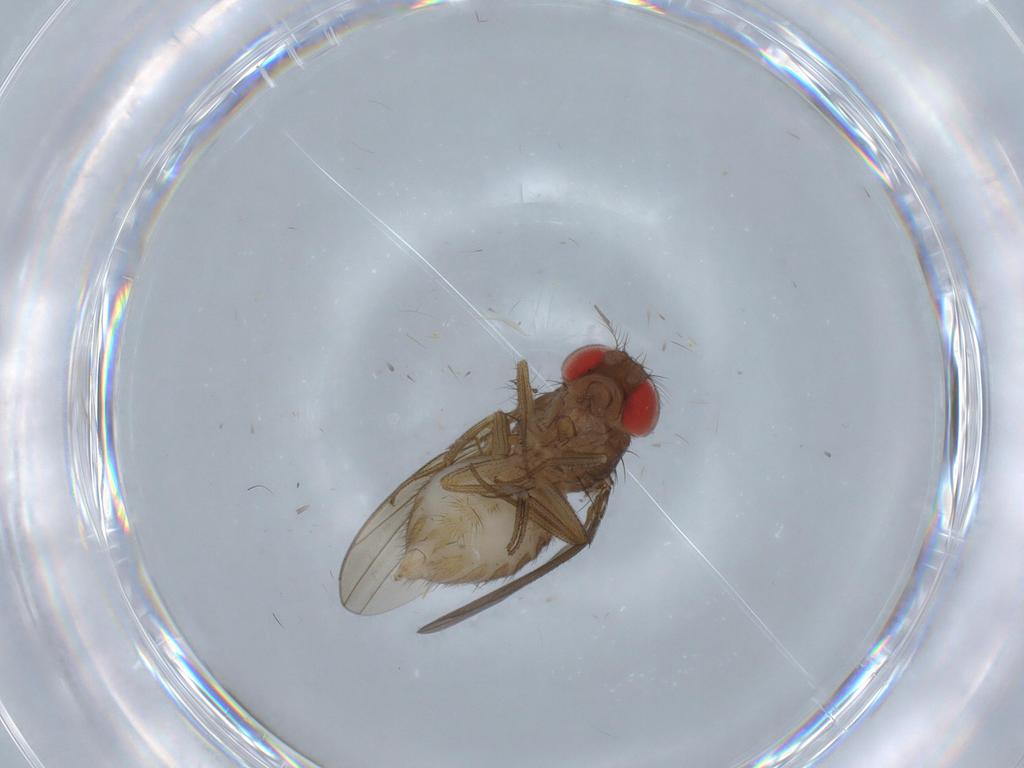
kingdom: Animalia
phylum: Arthropoda
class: Insecta
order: Diptera
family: Drosophilidae
